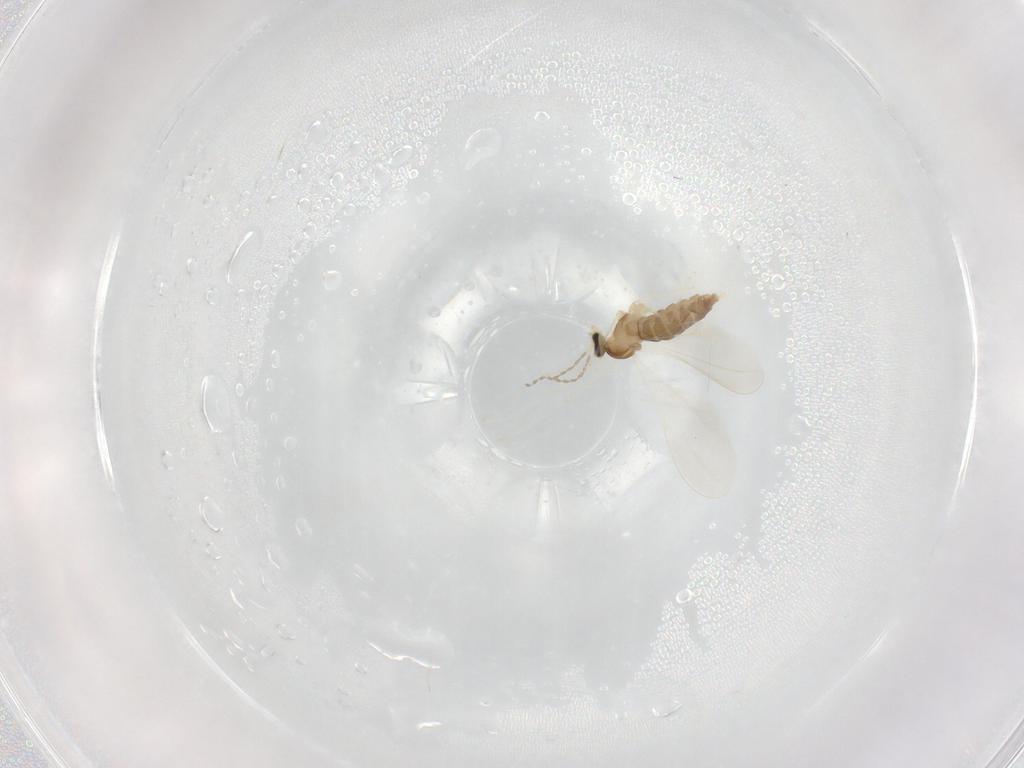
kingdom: Animalia
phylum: Arthropoda
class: Insecta
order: Diptera
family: Cecidomyiidae
